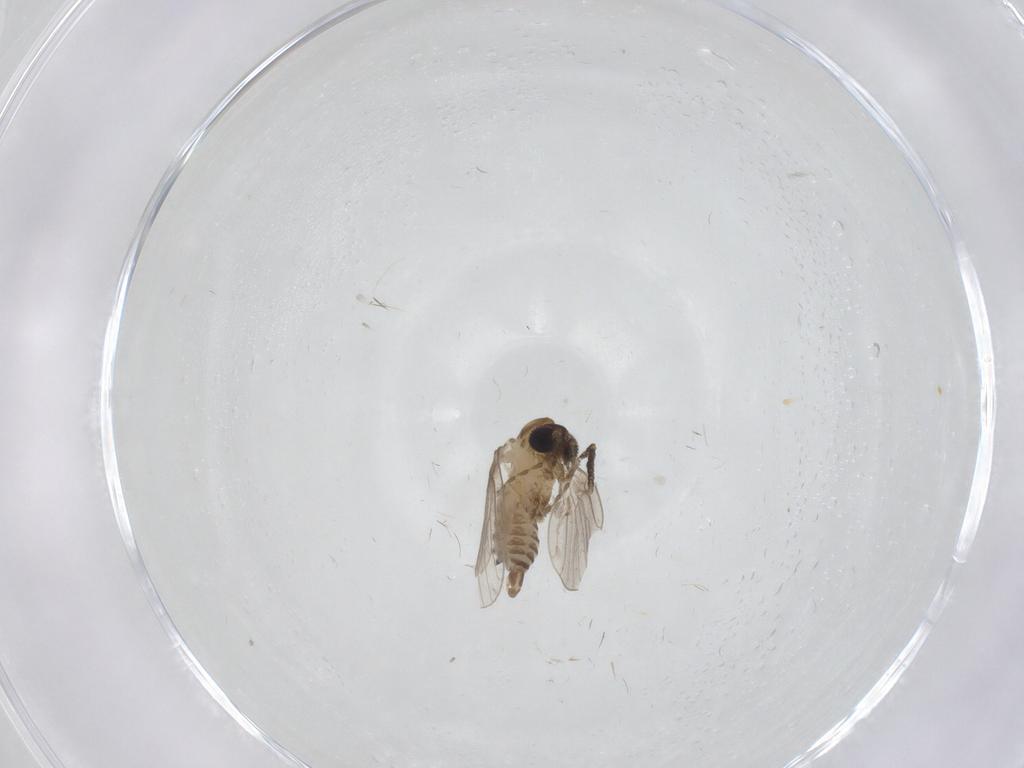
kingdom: Animalia
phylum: Arthropoda
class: Insecta
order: Diptera
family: Psychodidae
